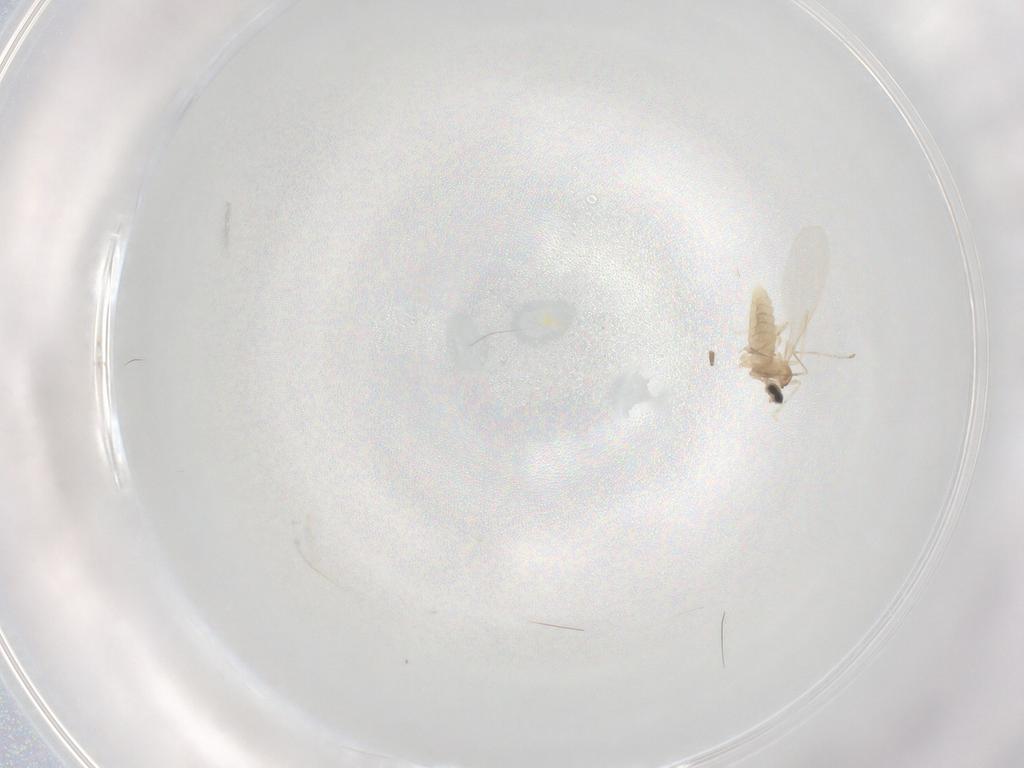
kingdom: Animalia
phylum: Arthropoda
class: Insecta
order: Diptera
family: Cecidomyiidae
